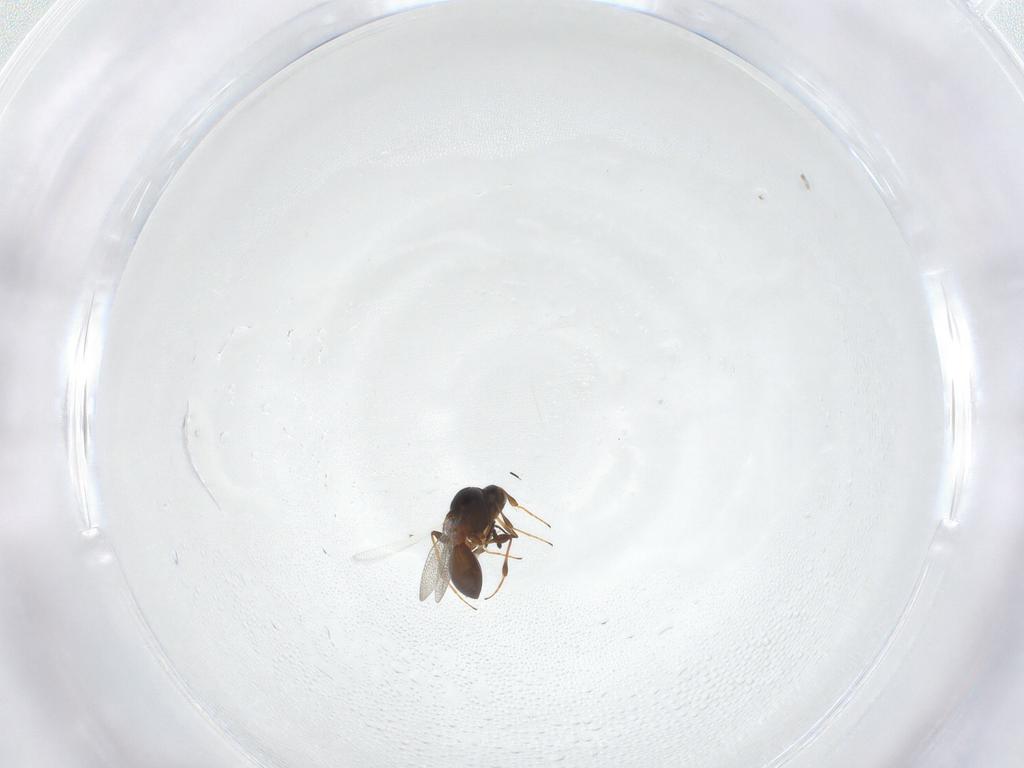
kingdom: Animalia
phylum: Arthropoda
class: Insecta
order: Hymenoptera
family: Platygastridae
